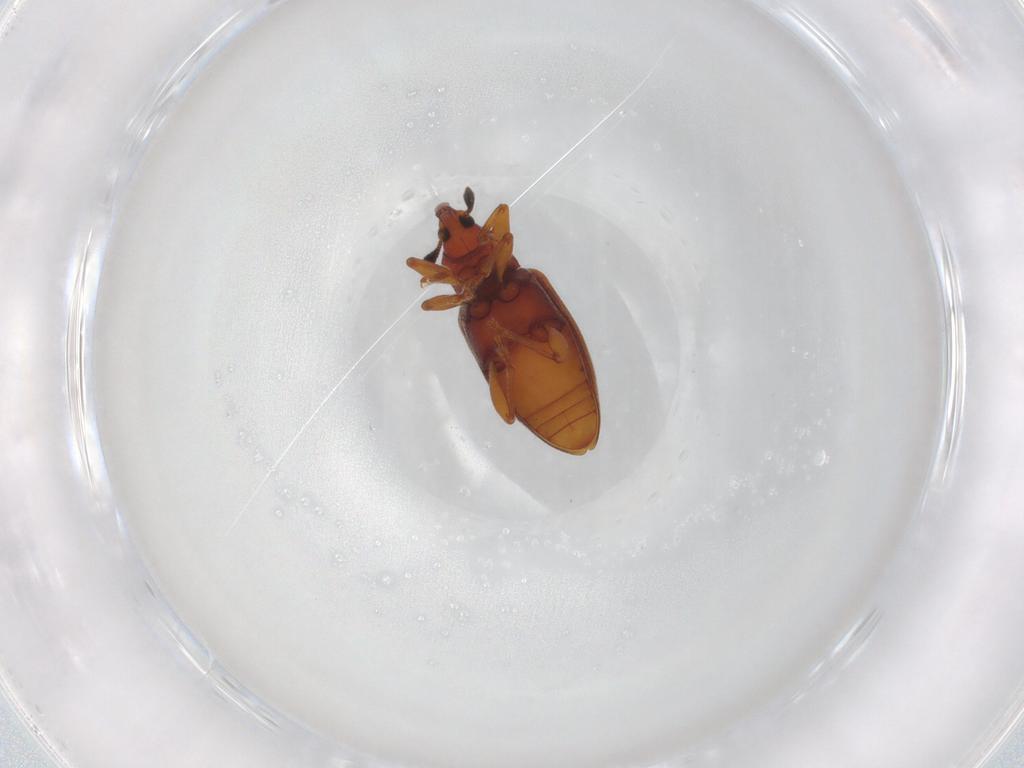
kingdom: Animalia
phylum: Arthropoda
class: Insecta
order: Coleoptera
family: Curculionidae
